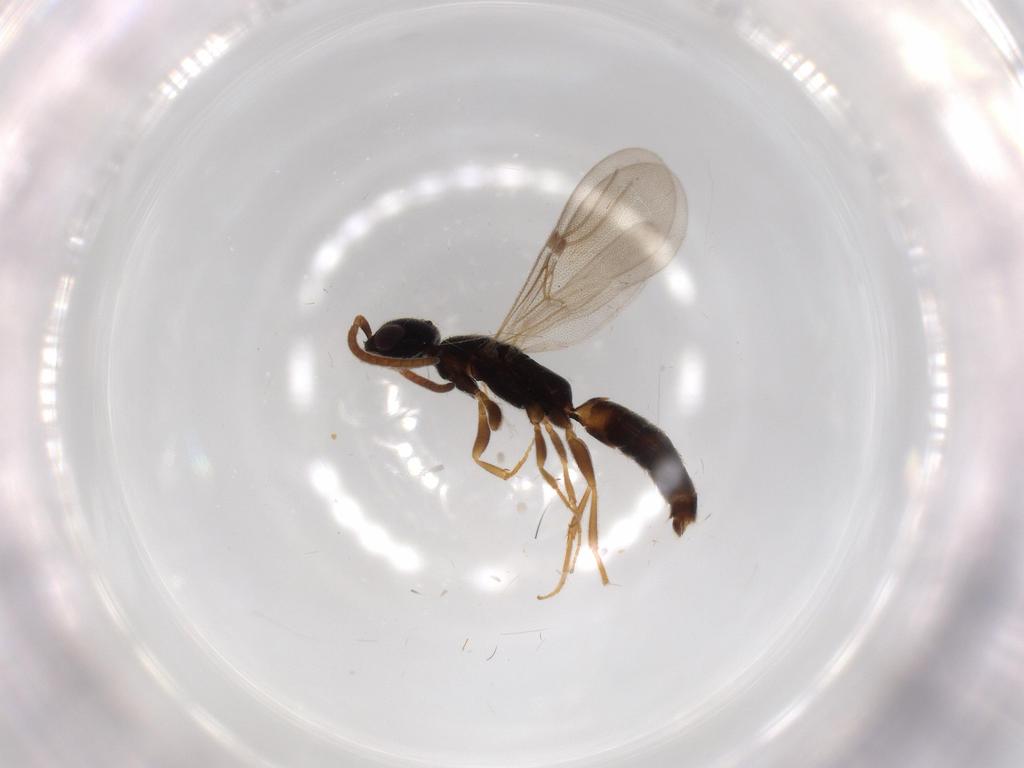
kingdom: Animalia
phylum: Arthropoda
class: Insecta
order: Hymenoptera
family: Bethylidae
